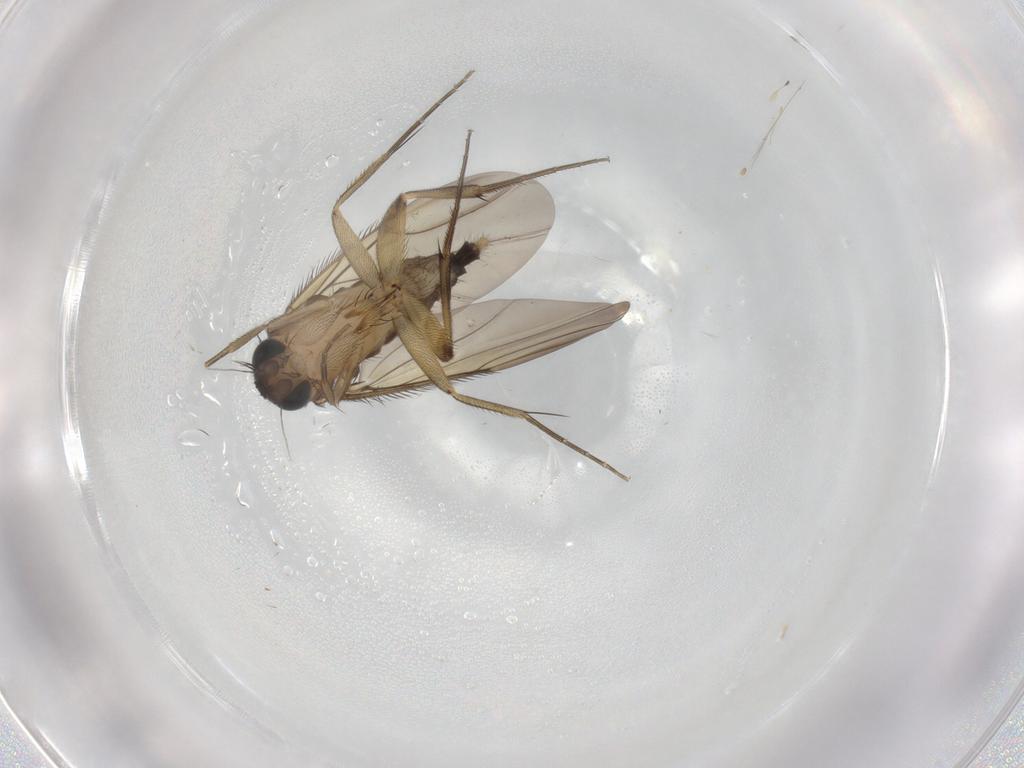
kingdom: Animalia
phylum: Arthropoda
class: Insecta
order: Diptera
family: Phoridae
